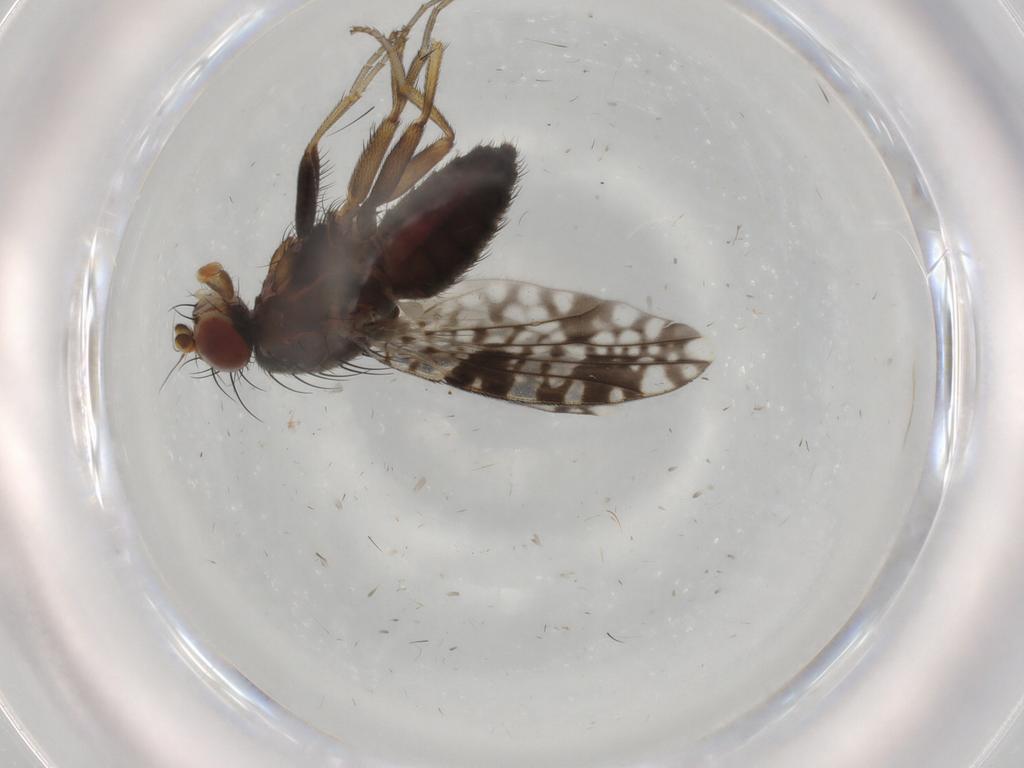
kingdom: Animalia
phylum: Arthropoda
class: Insecta
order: Diptera
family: Tephritidae
